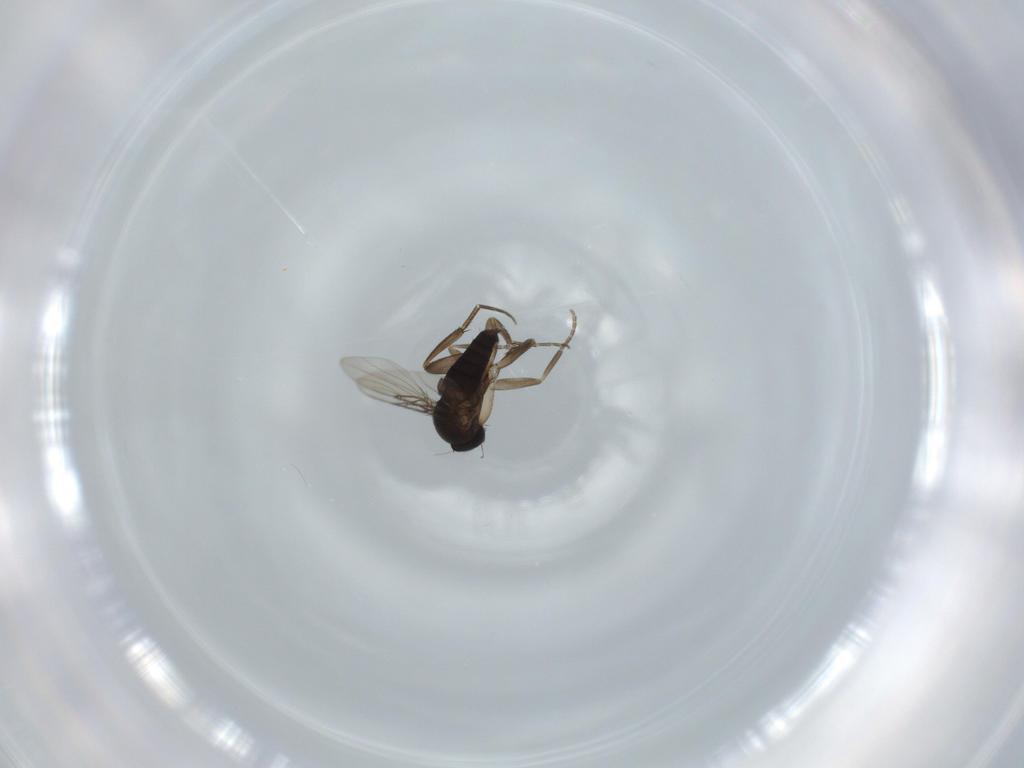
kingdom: Animalia
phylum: Arthropoda
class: Insecta
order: Diptera
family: Phoridae
